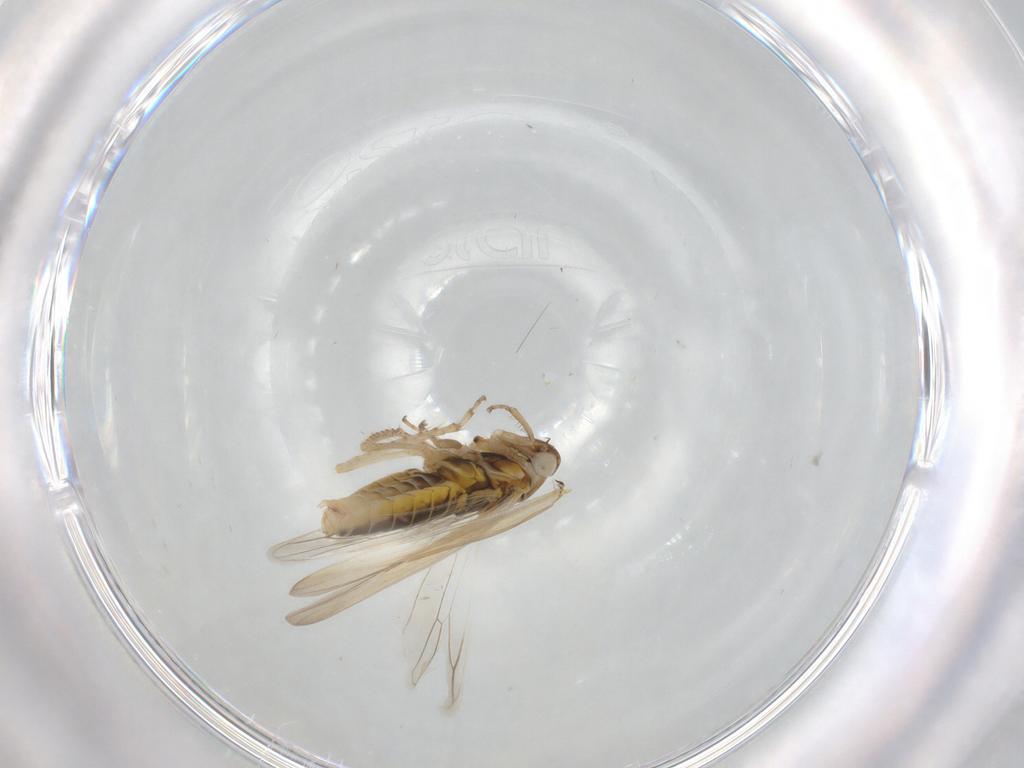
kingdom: Animalia
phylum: Arthropoda
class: Insecta
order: Hemiptera
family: Cicadellidae
